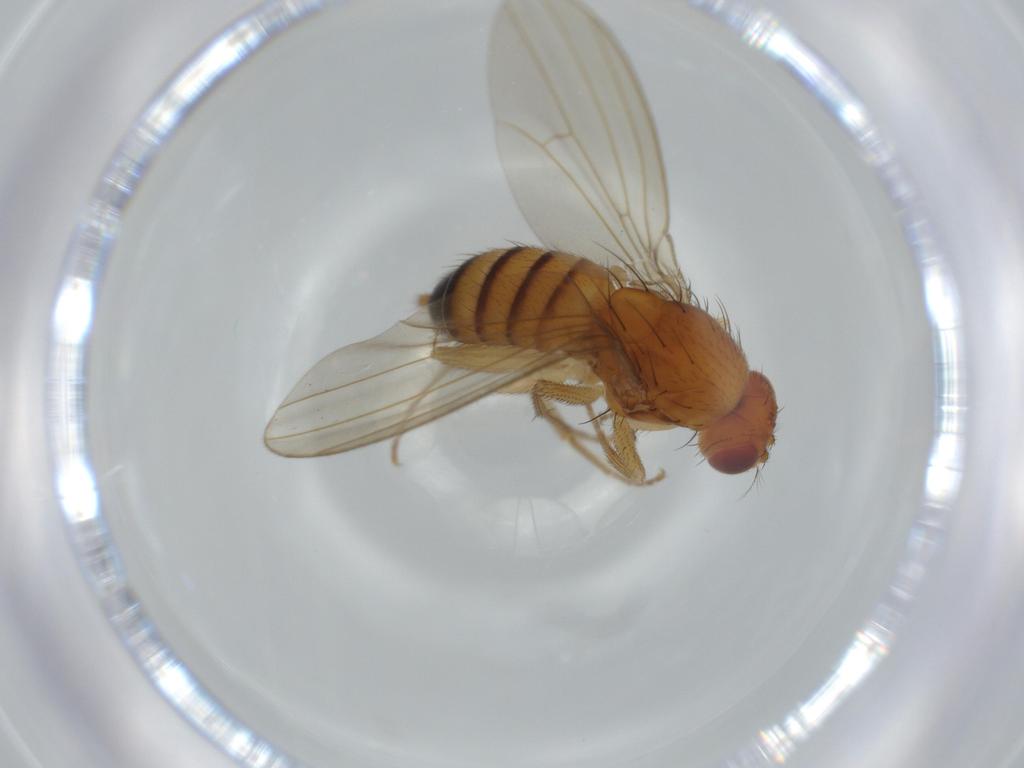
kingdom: Animalia
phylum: Arthropoda
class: Insecta
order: Diptera
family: Drosophilidae
